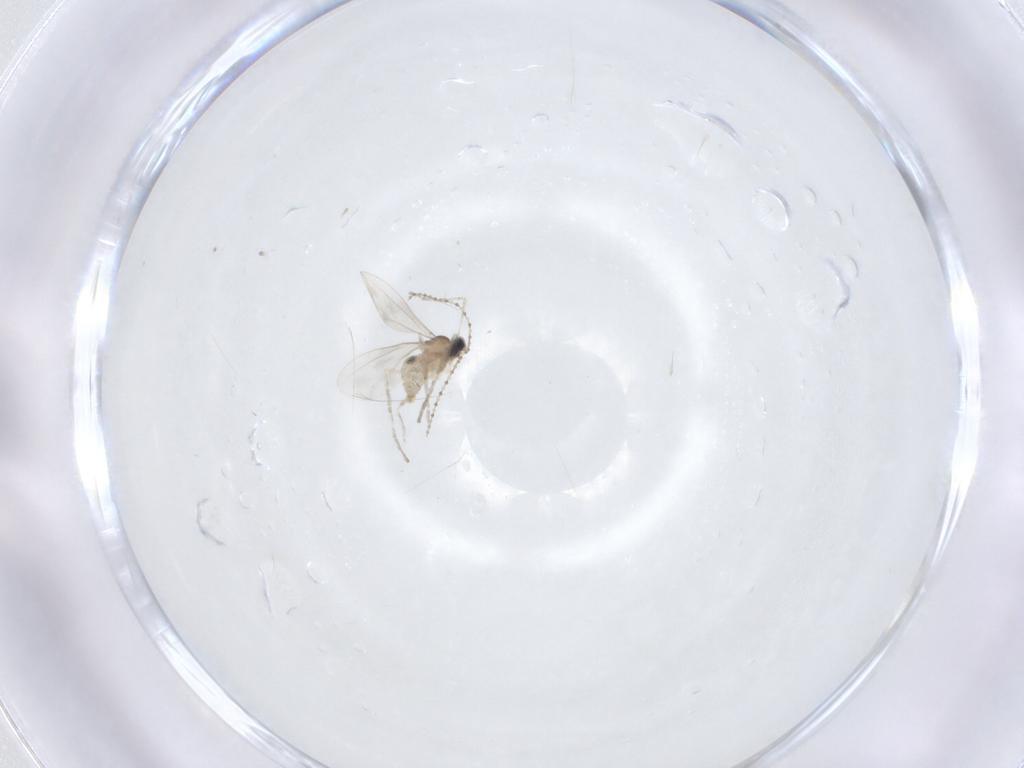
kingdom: Animalia
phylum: Arthropoda
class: Insecta
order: Diptera
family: Cecidomyiidae
